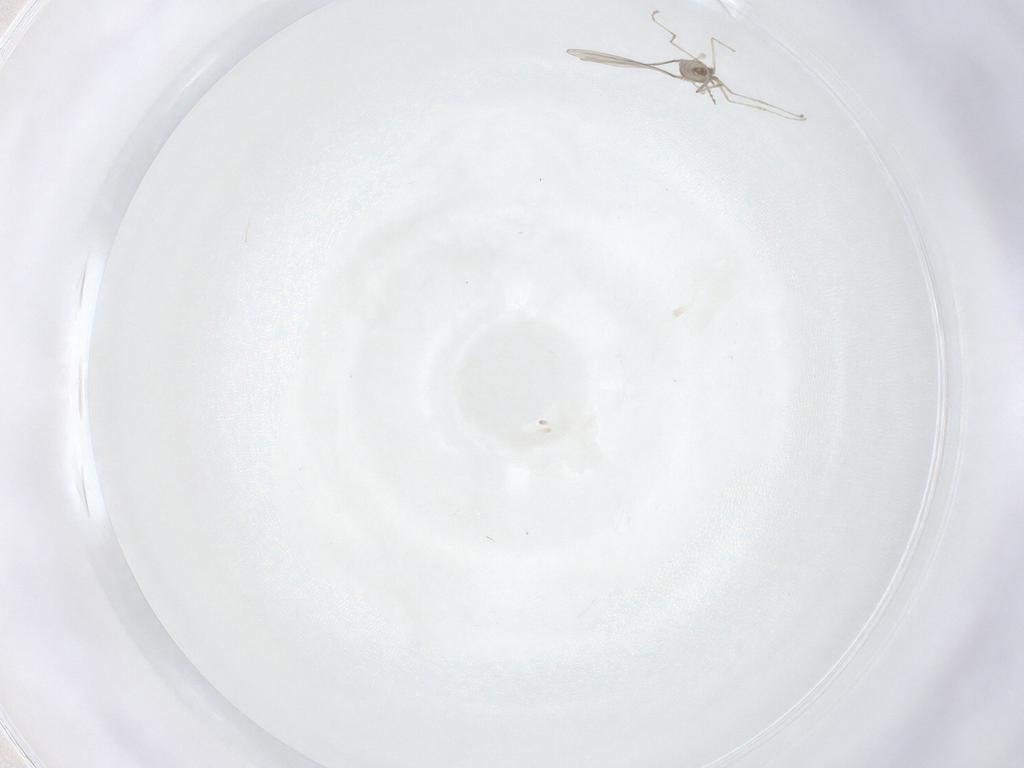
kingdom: Animalia
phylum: Arthropoda
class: Insecta
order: Diptera
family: Cecidomyiidae
